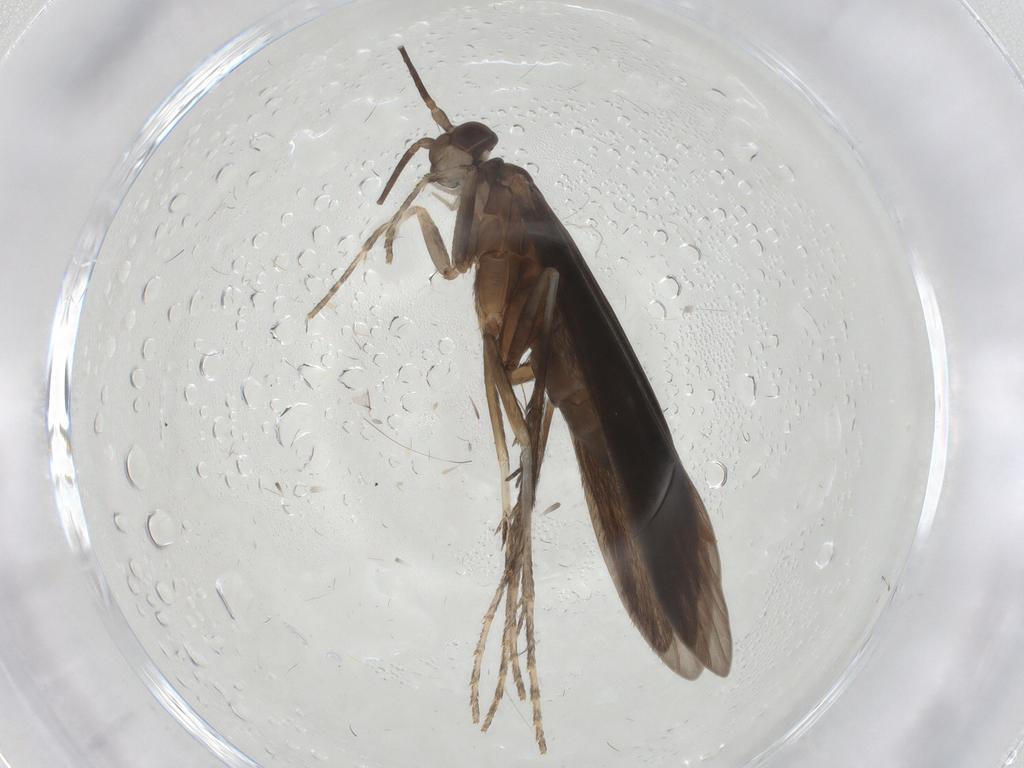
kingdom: Animalia
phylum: Arthropoda
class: Insecta
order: Trichoptera
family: Xiphocentronidae
